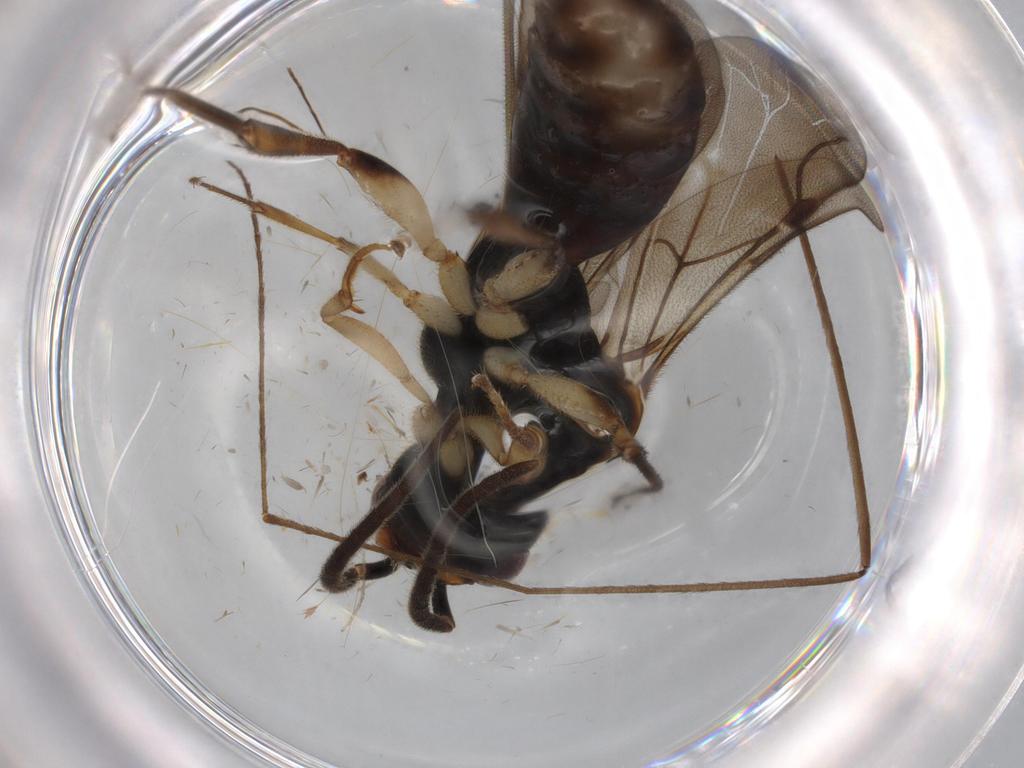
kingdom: Animalia
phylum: Arthropoda
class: Insecta
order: Hymenoptera
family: Bethylidae
